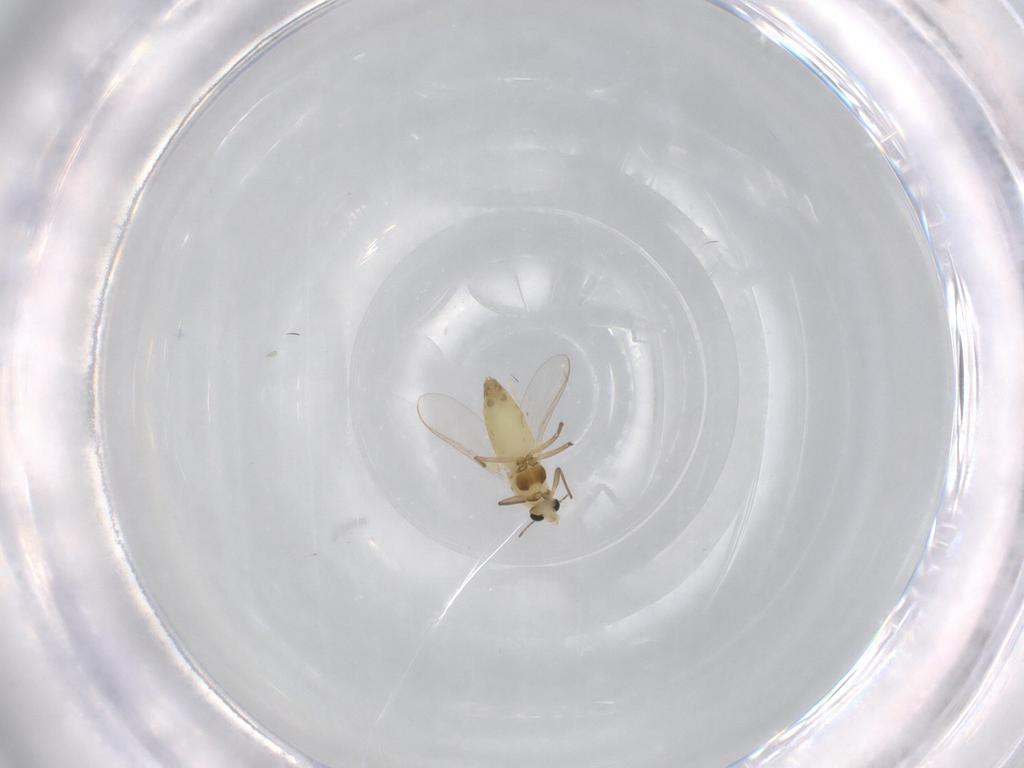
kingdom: Animalia
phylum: Arthropoda
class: Insecta
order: Diptera
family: Chironomidae
